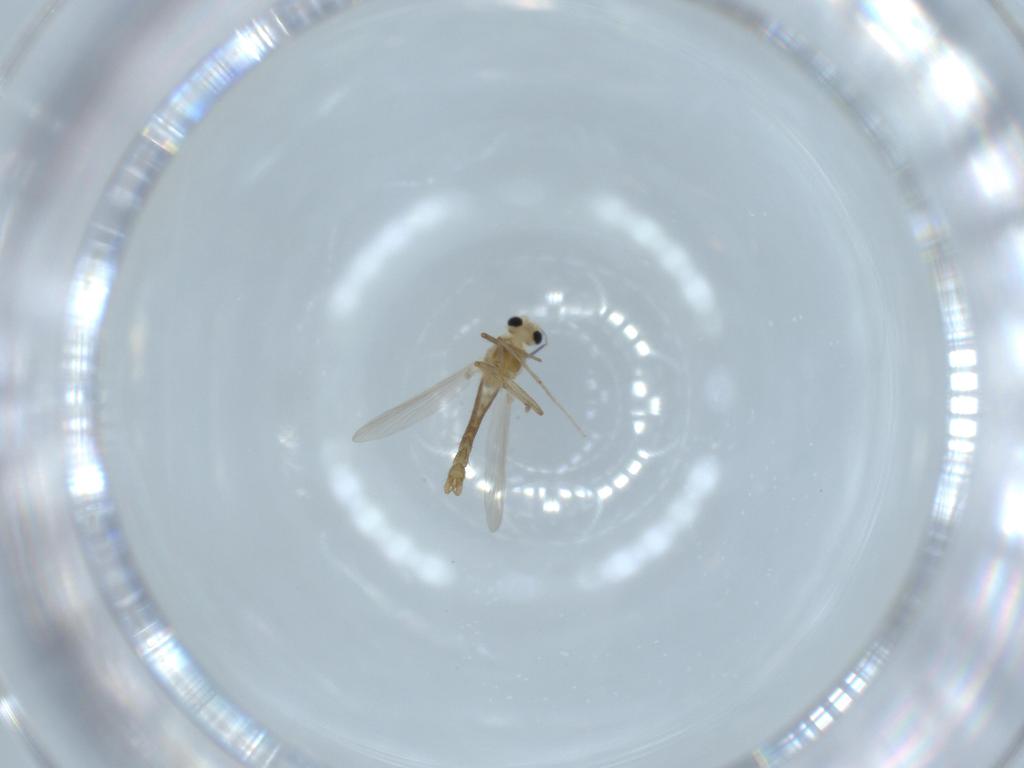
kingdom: Animalia
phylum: Arthropoda
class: Insecta
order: Diptera
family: Chironomidae
